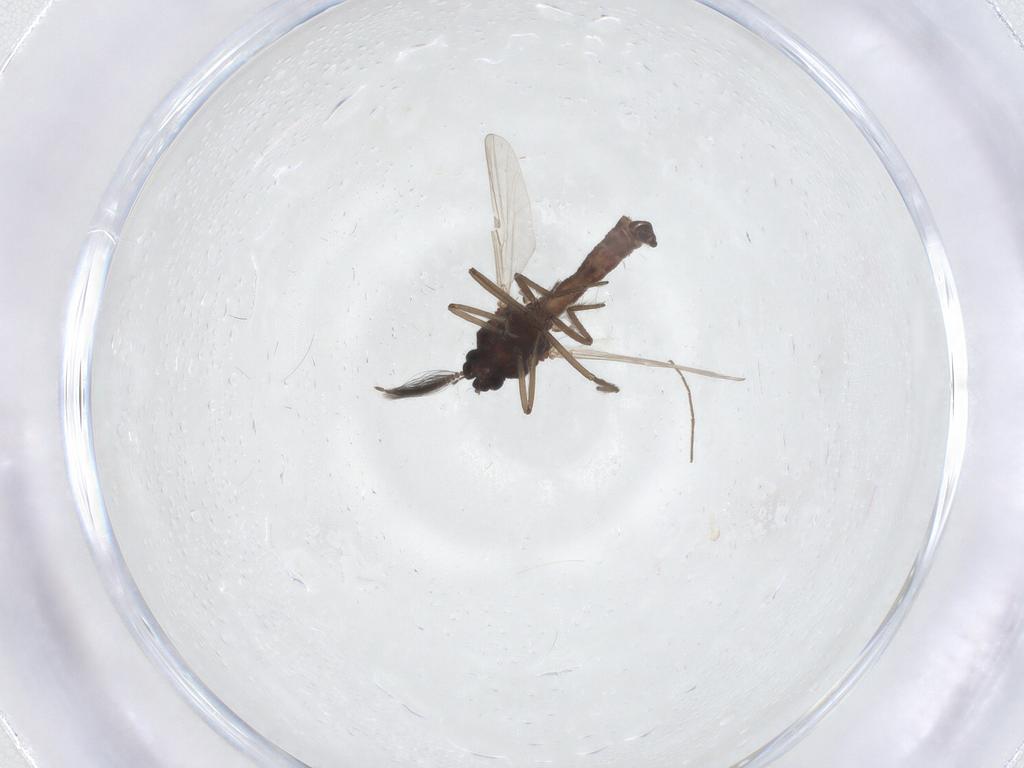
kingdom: Animalia
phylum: Arthropoda
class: Insecta
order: Diptera
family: Ceratopogonidae
